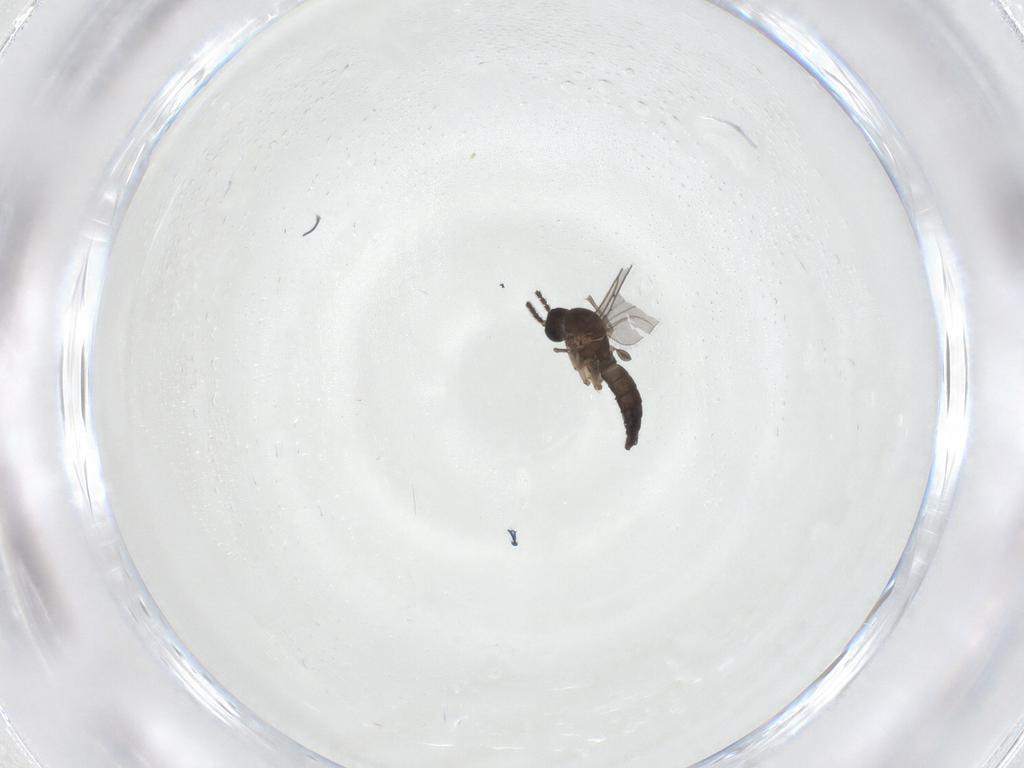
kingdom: Animalia
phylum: Arthropoda
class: Insecta
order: Diptera
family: Sciaridae
